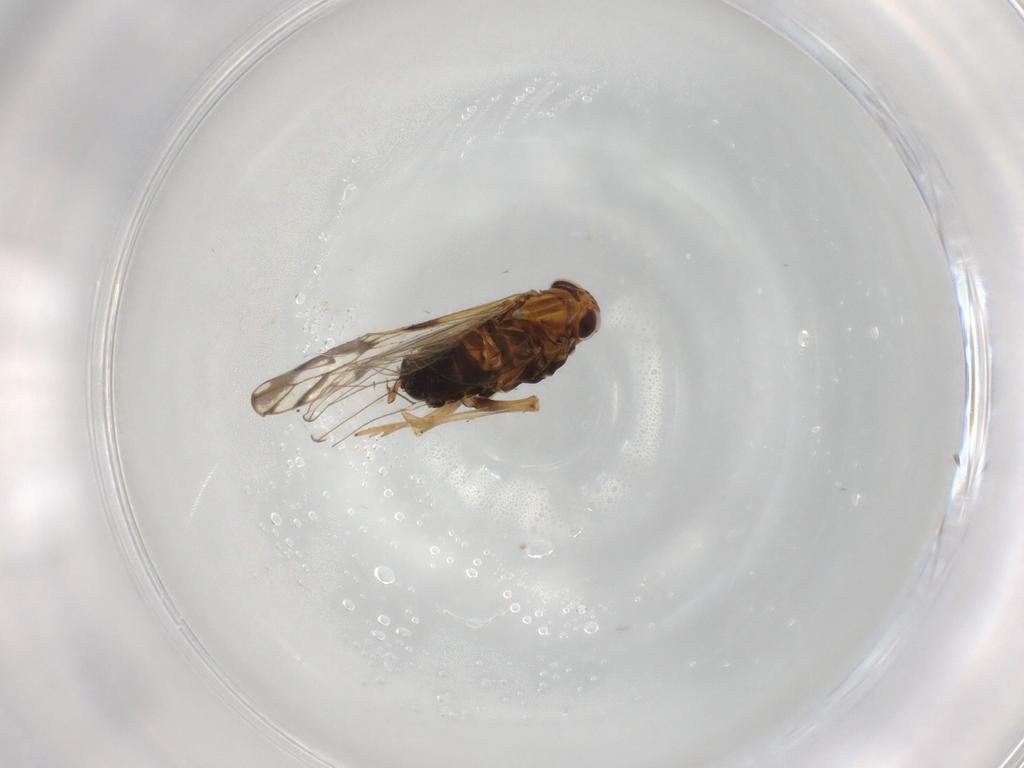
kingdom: Animalia
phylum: Arthropoda
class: Insecta
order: Hemiptera
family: Delphacidae
